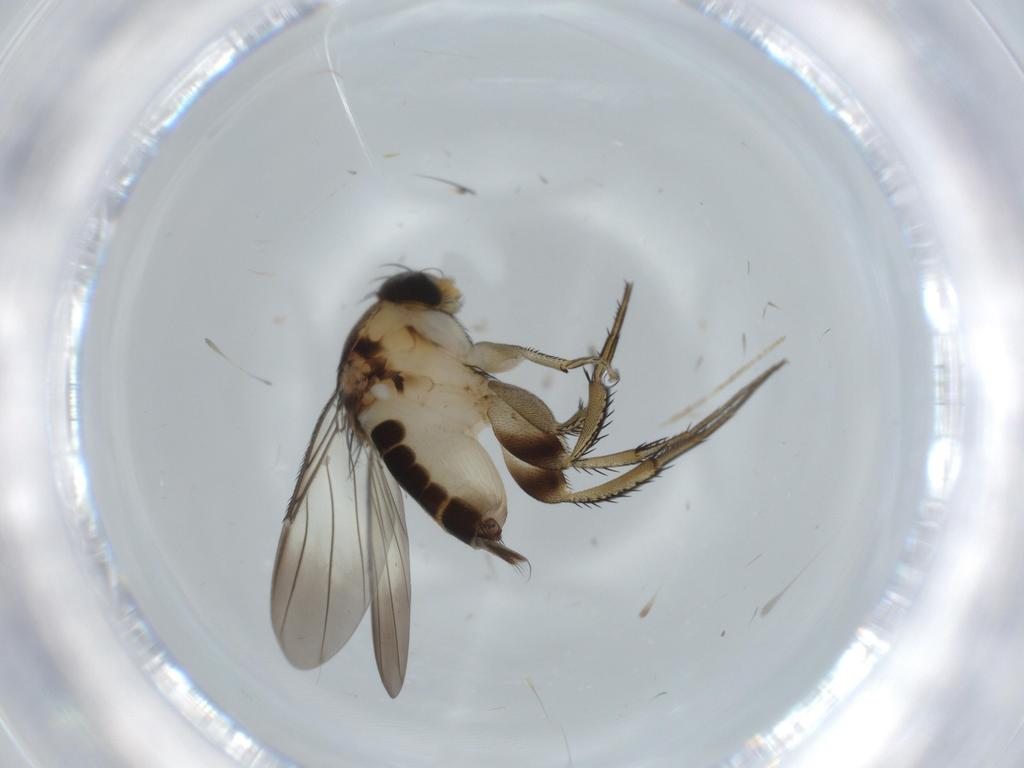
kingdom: Animalia
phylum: Arthropoda
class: Insecta
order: Diptera
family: Phoridae
